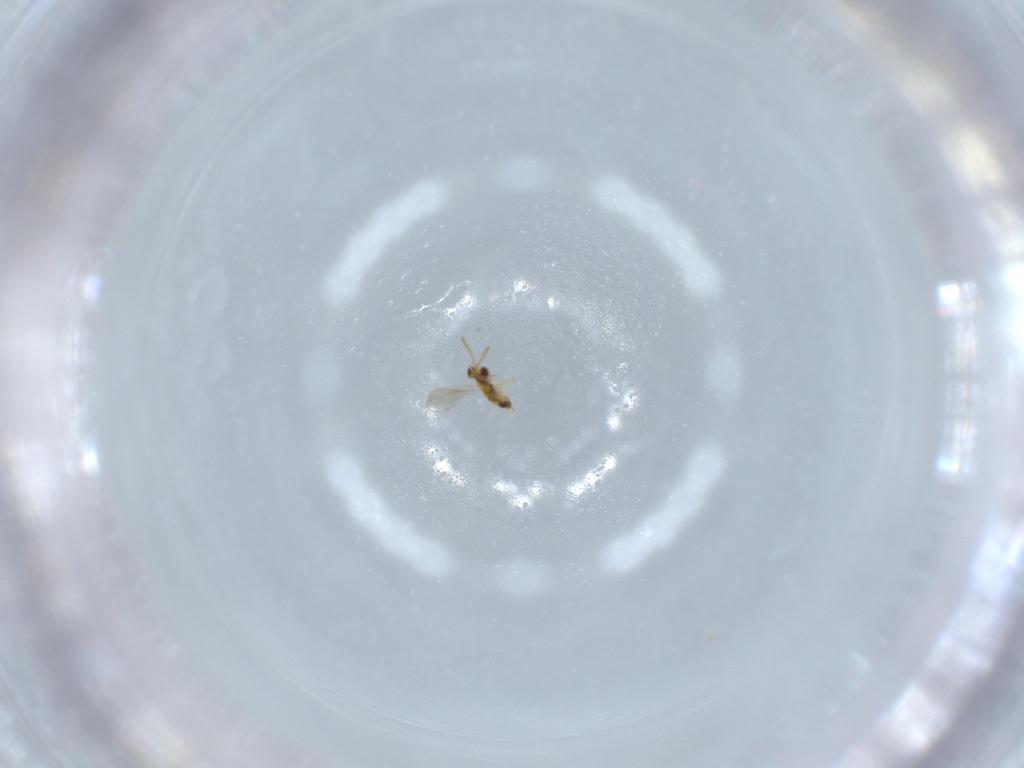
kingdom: Animalia
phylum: Arthropoda
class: Insecta
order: Hymenoptera
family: Aphelinidae
